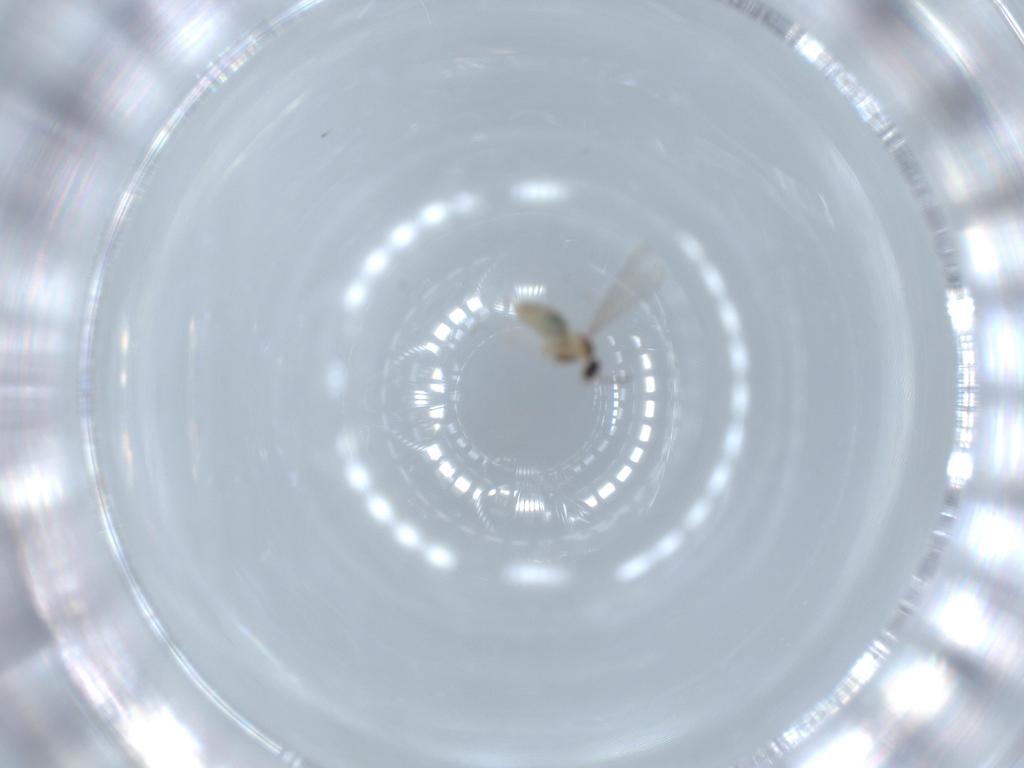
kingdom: Animalia
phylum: Arthropoda
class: Insecta
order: Diptera
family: Cecidomyiidae
